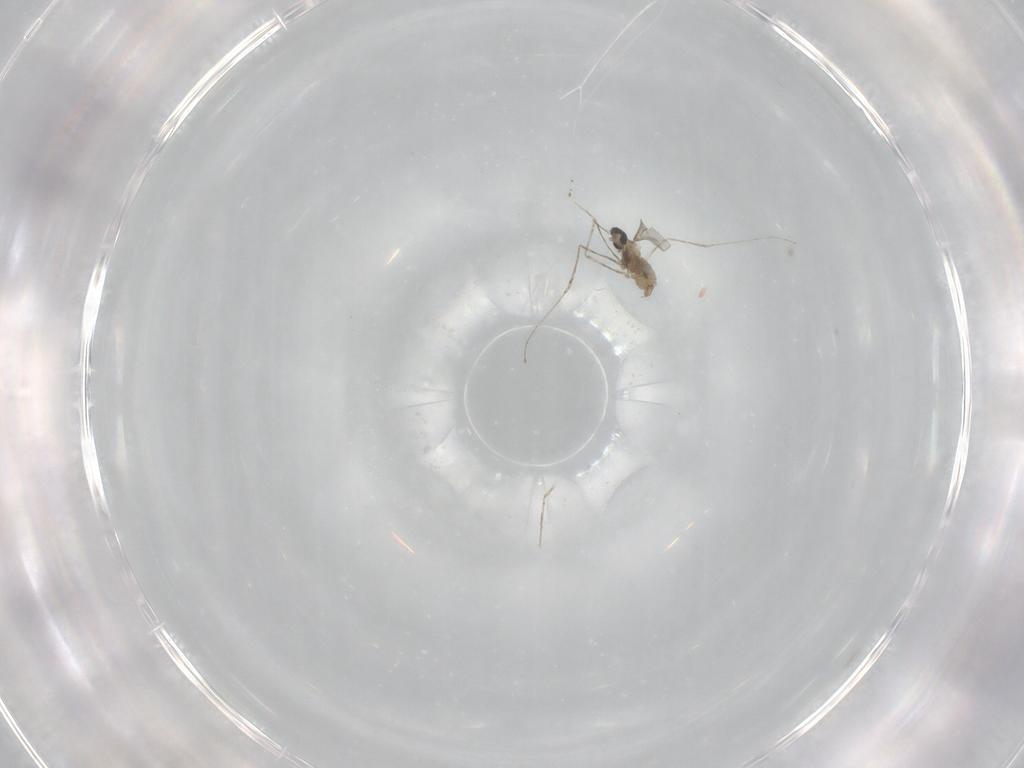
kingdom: Animalia
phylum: Arthropoda
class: Insecta
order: Diptera
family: Cecidomyiidae
